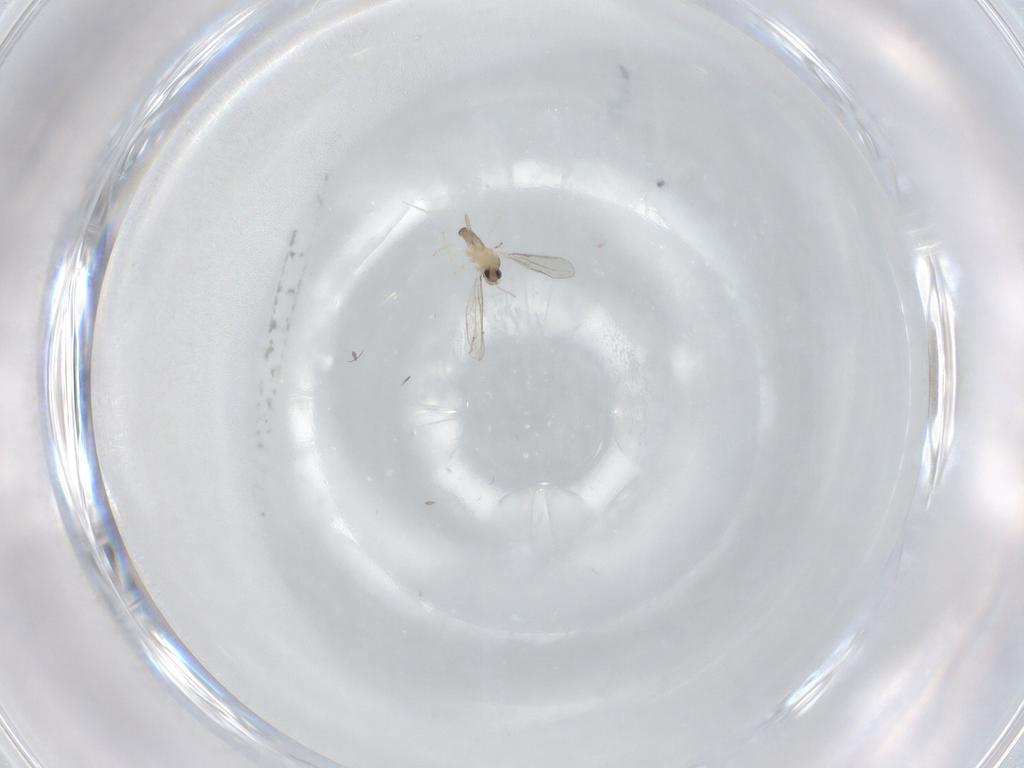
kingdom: Animalia
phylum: Arthropoda
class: Insecta
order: Diptera
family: Cecidomyiidae
